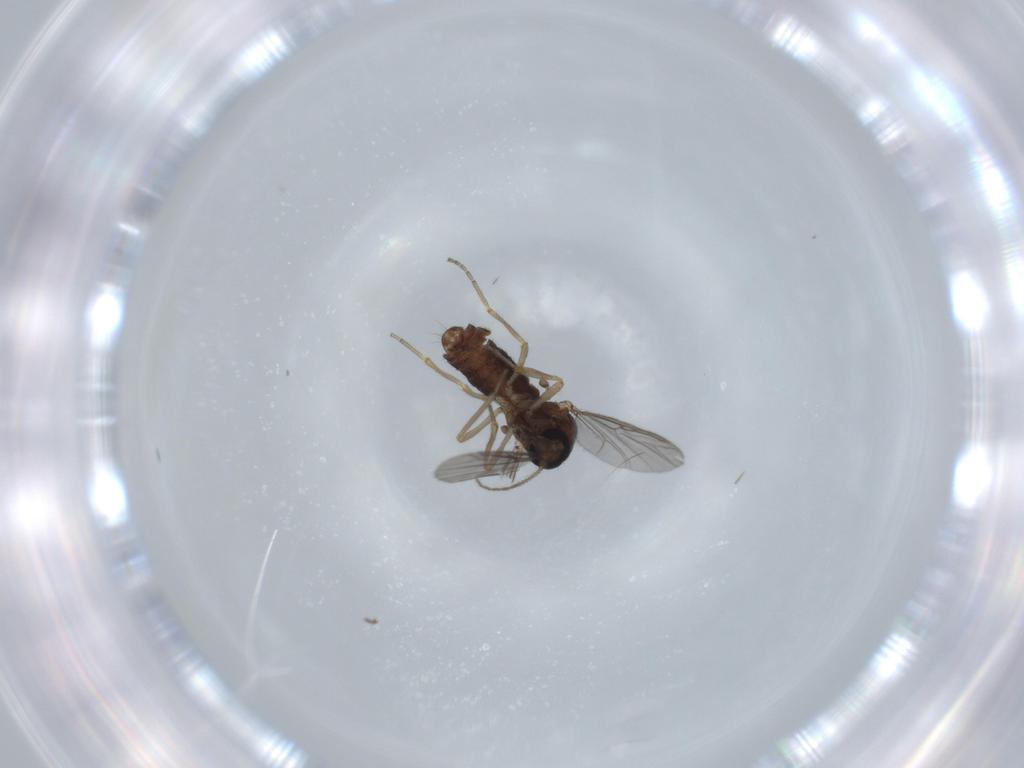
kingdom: Animalia
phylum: Arthropoda
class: Insecta
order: Diptera
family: Ceratopogonidae
